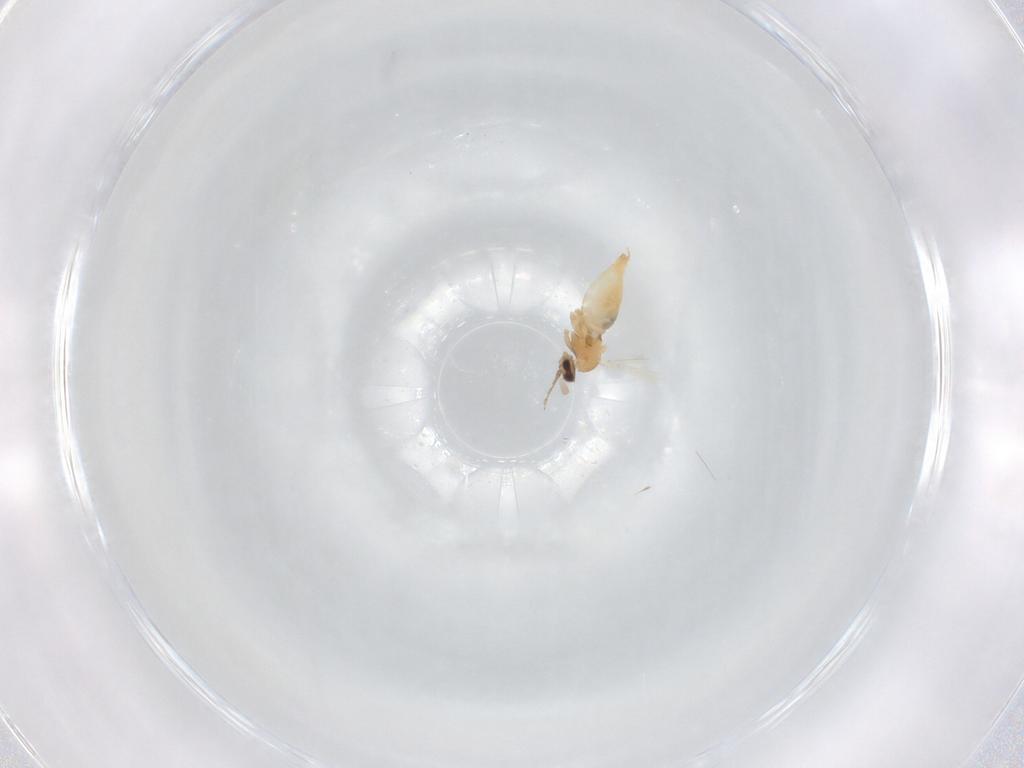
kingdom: Animalia
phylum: Arthropoda
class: Insecta
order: Diptera
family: Cecidomyiidae
